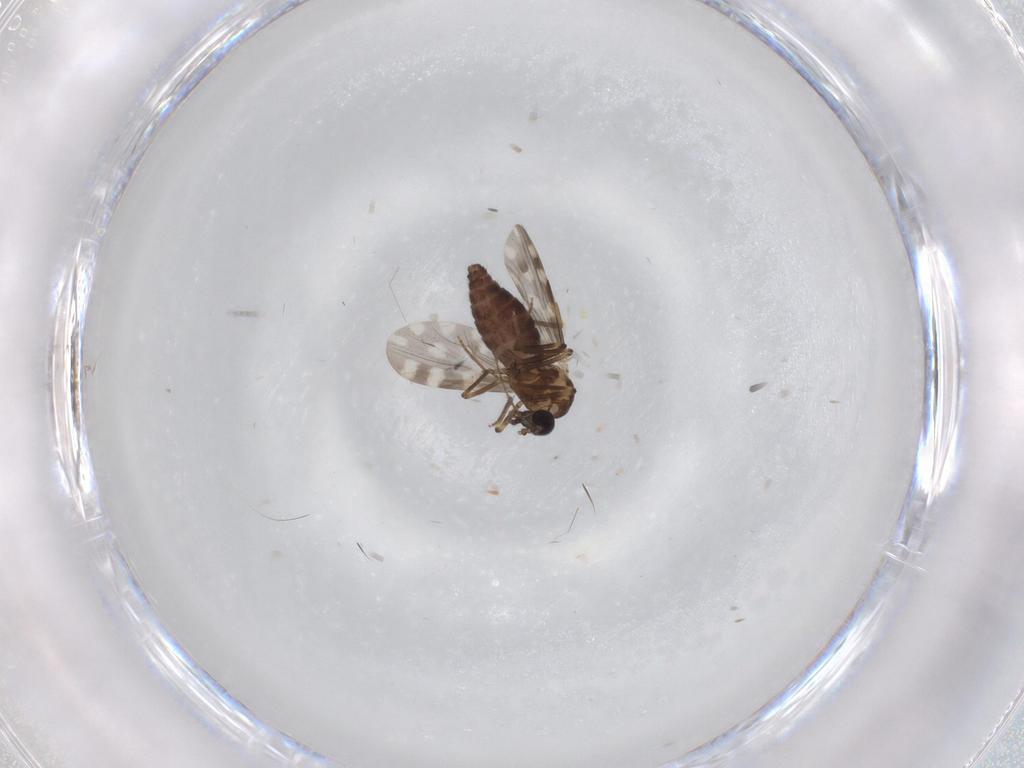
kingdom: Animalia
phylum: Arthropoda
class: Insecta
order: Diptera
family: Ceratopogonidae
